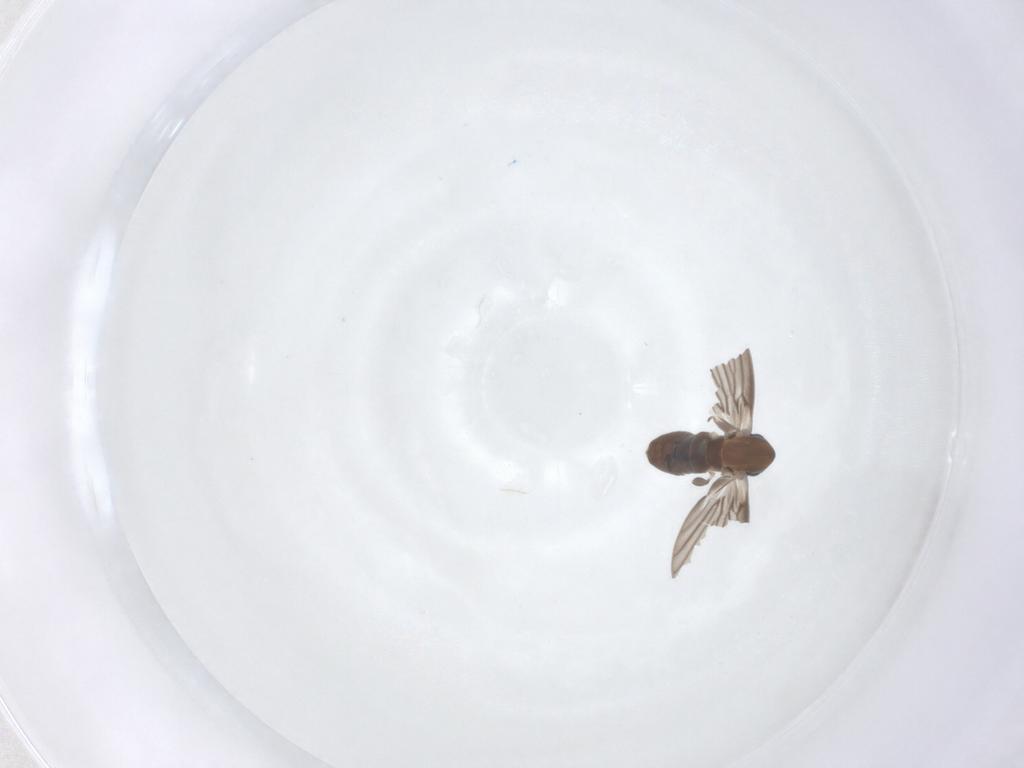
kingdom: Animalia
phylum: Arthropoda
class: Insecta
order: Diptera
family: Psychodidae
